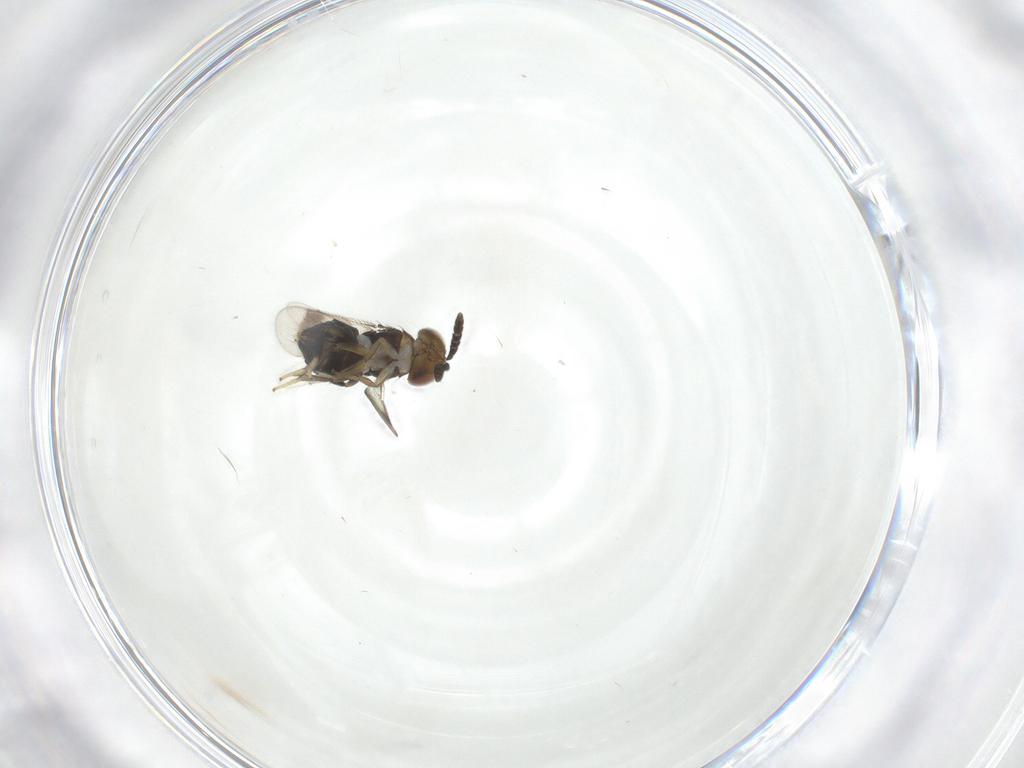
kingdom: Animalia
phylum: Arthropoda
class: Insecta
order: Hymenoptera
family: Aphelinidae
